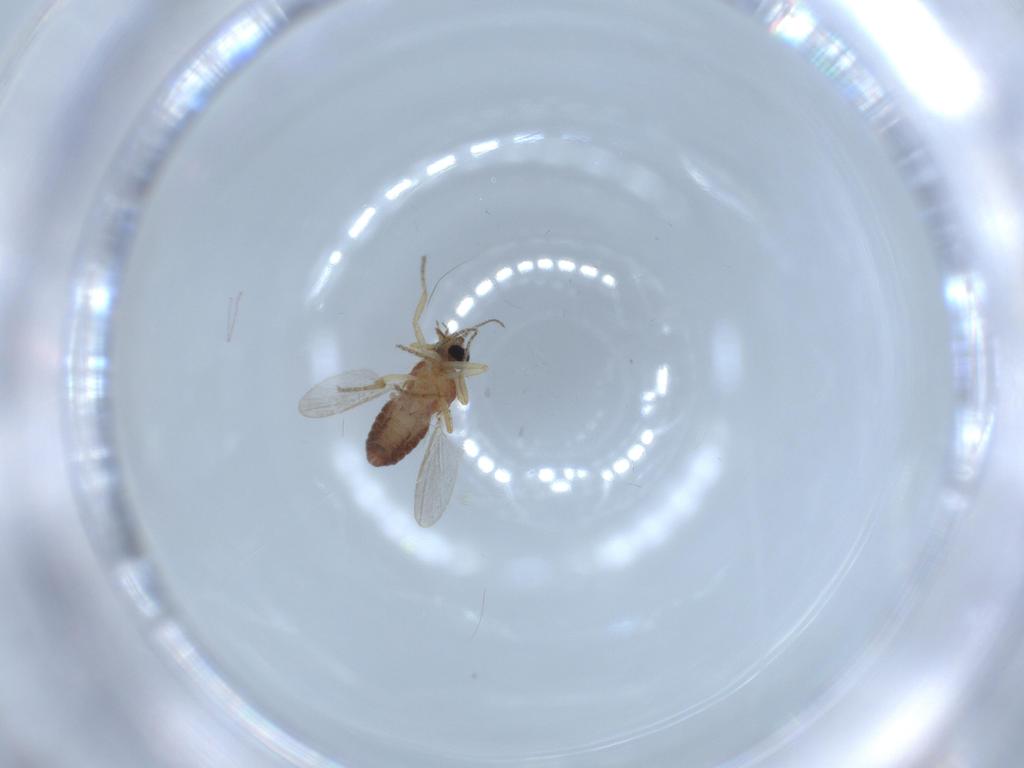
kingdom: Animalia
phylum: Arthropoda
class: Insecta
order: Diptera
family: Ceratopogonidae
